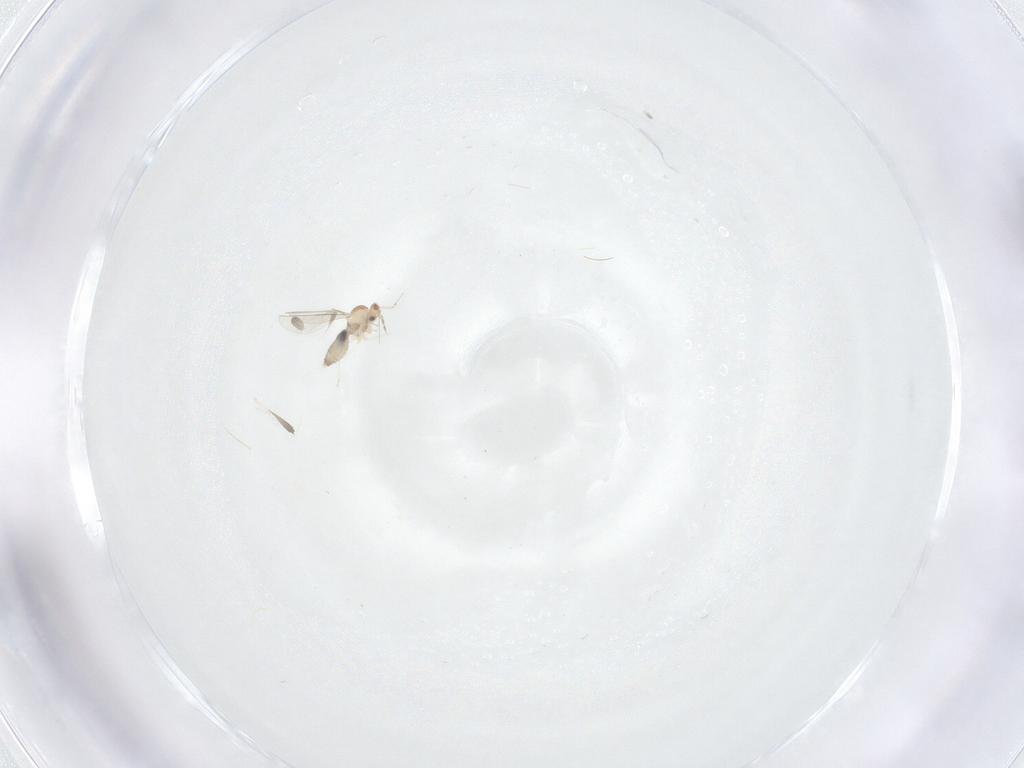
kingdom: Animalia
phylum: Arthropoda
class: Insecta
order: Diptera
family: Cecidomyiidae
